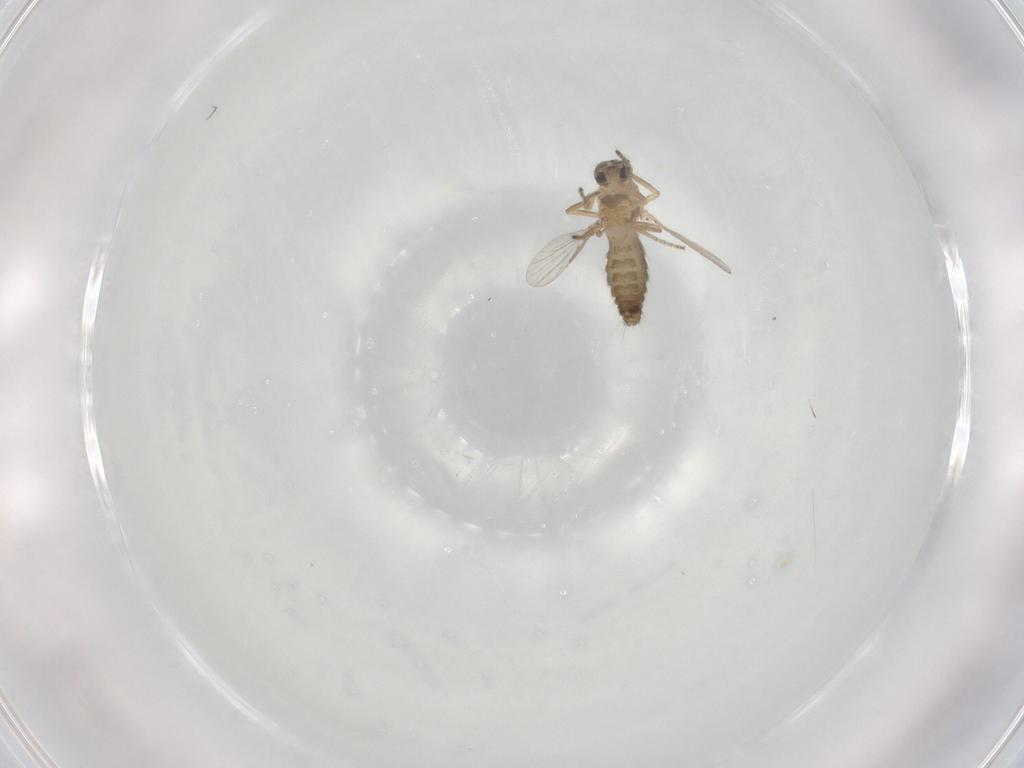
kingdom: Animalia
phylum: Arthropoda
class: Insecta
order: Diptera
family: Ceratopogonidae
